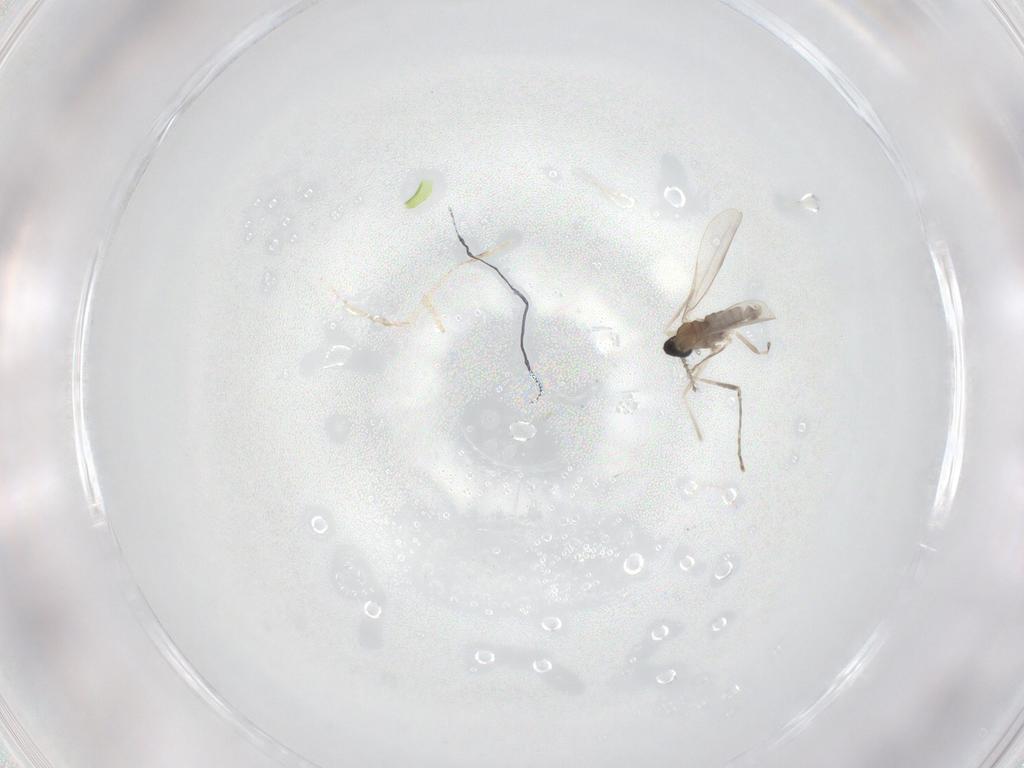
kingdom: Animalia
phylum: Arthropoda
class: Insecta
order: Diptera
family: Cecidomyiidae
